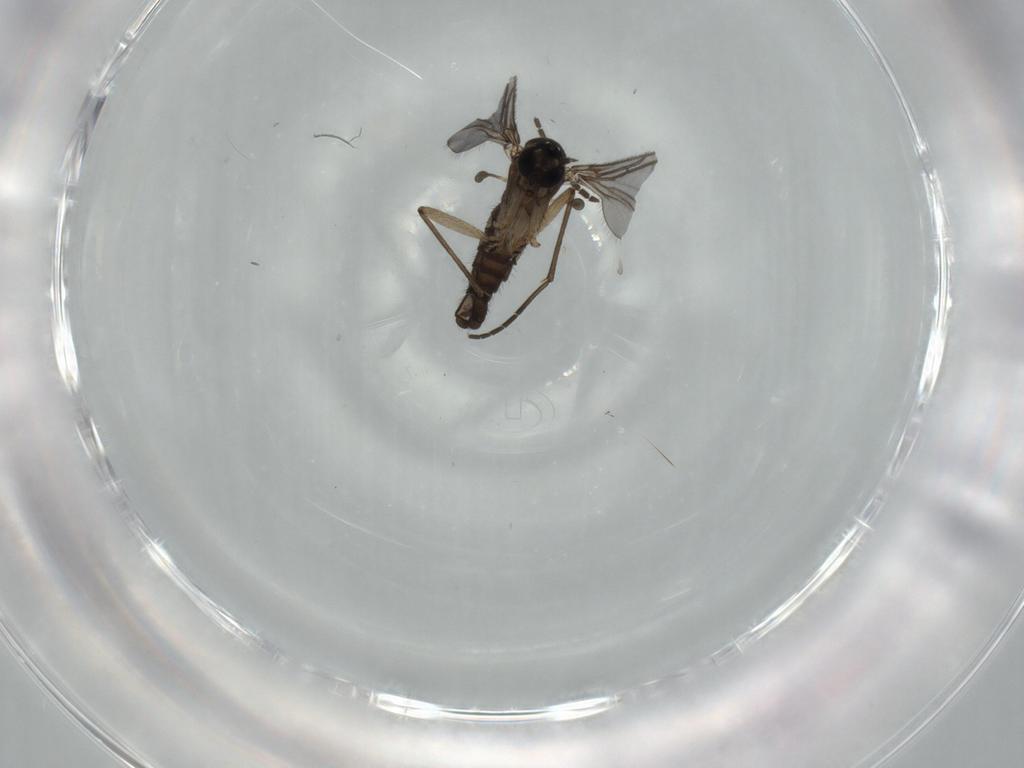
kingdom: Animalia
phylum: Arthropoda
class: Insecta
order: Diptera
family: Sciaridae
